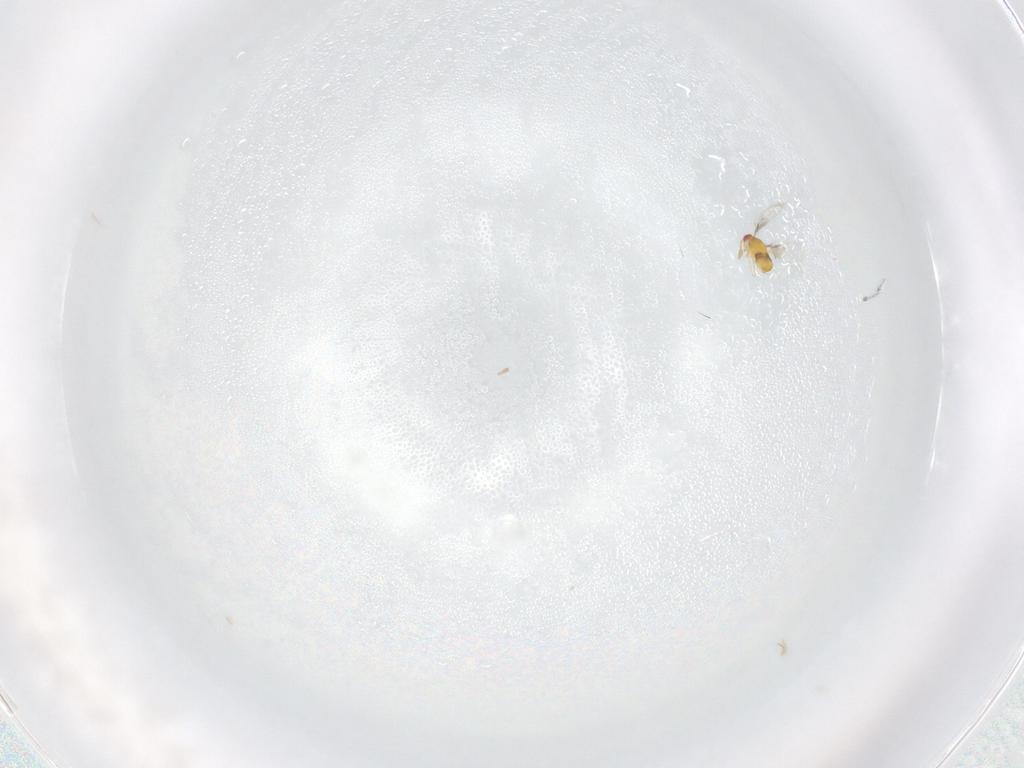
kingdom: Animalia
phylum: Arthropoda
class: Insecta
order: Hymenoptera
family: Trichogrammatidae
